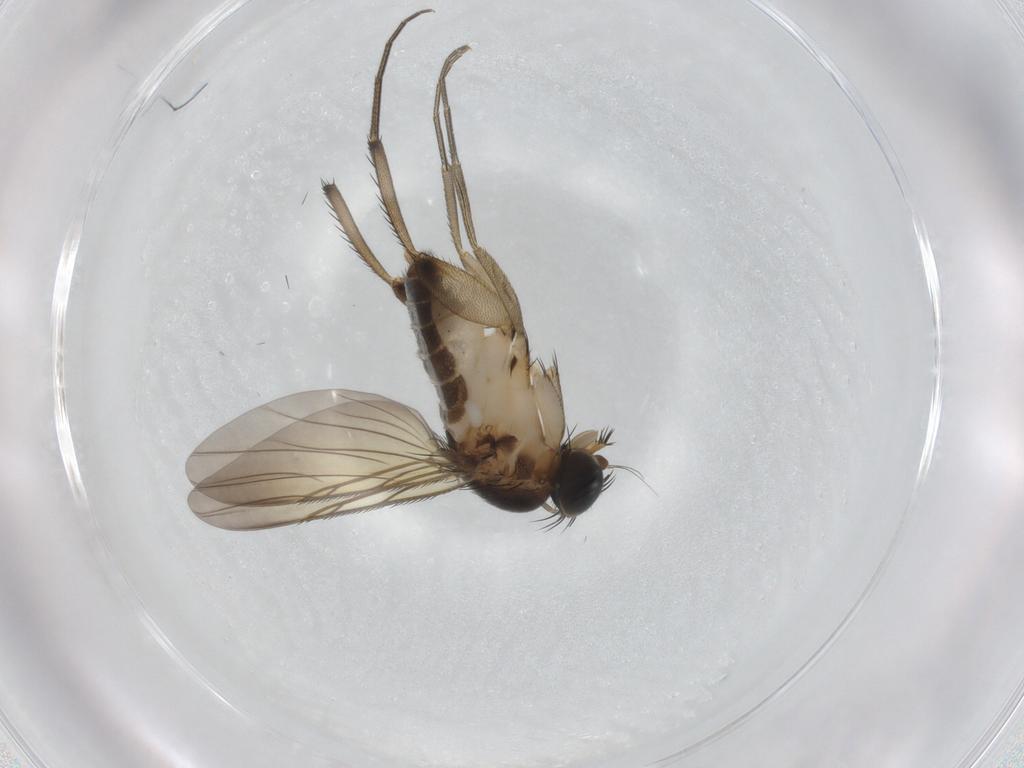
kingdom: Animalia
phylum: Arthropoda
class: Insecta
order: Diptera
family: Phoridae
